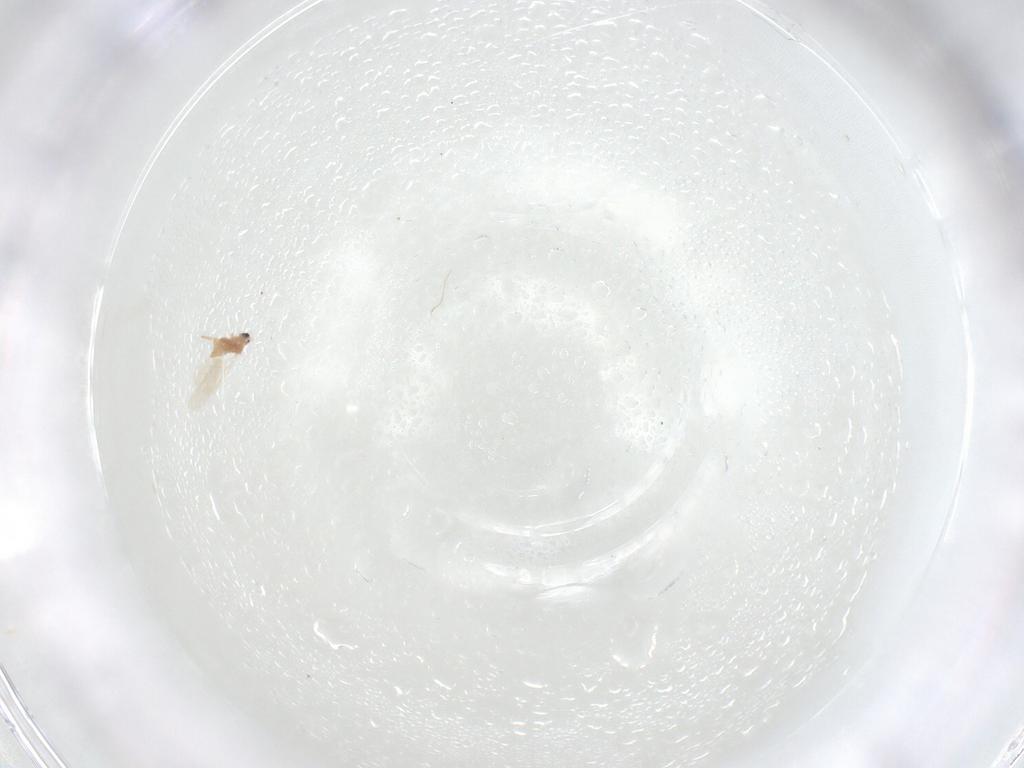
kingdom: Animalia
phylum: Arthropoda
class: Insecta
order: Diptera
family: Cecidomyiidae
